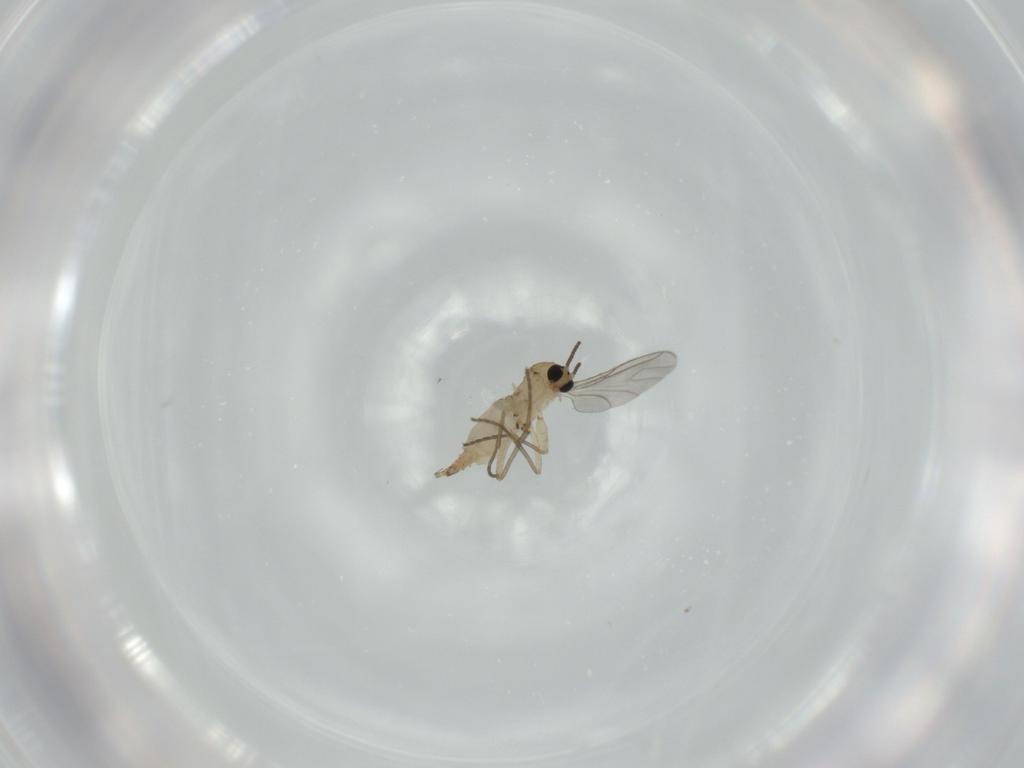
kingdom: Animalia
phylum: Arthropoda
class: Insecta
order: Diptera
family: Sciaridae
